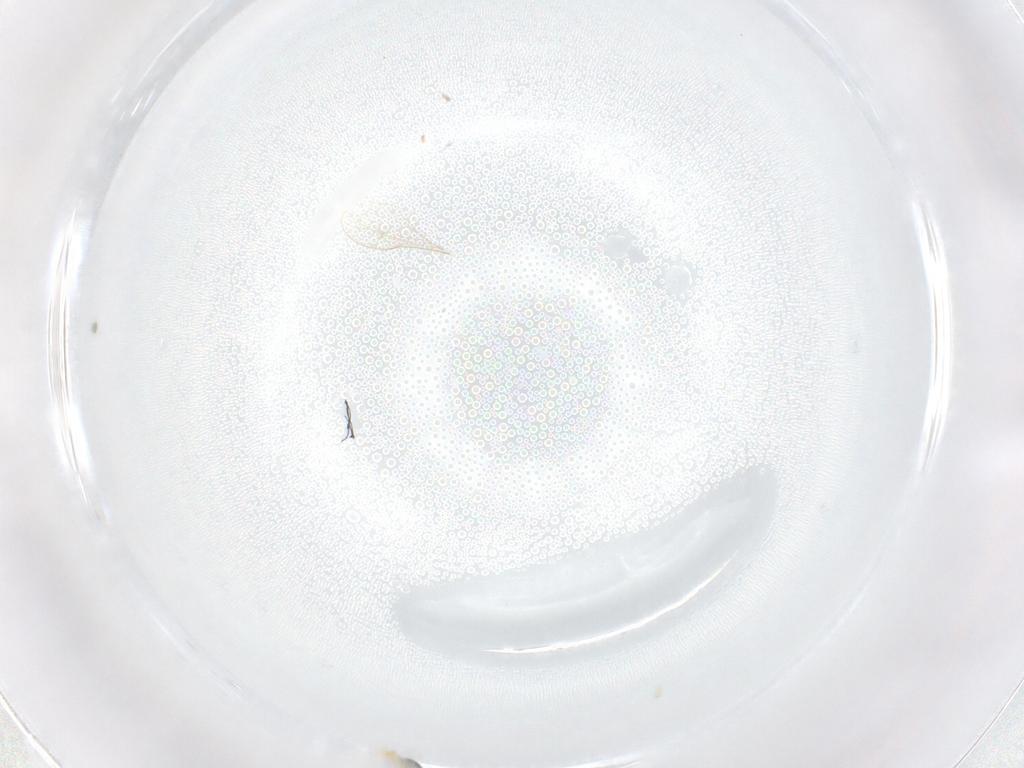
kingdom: Animalia
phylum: Arthropoda
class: Insecta
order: Diptera
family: Cecidomyiidae
